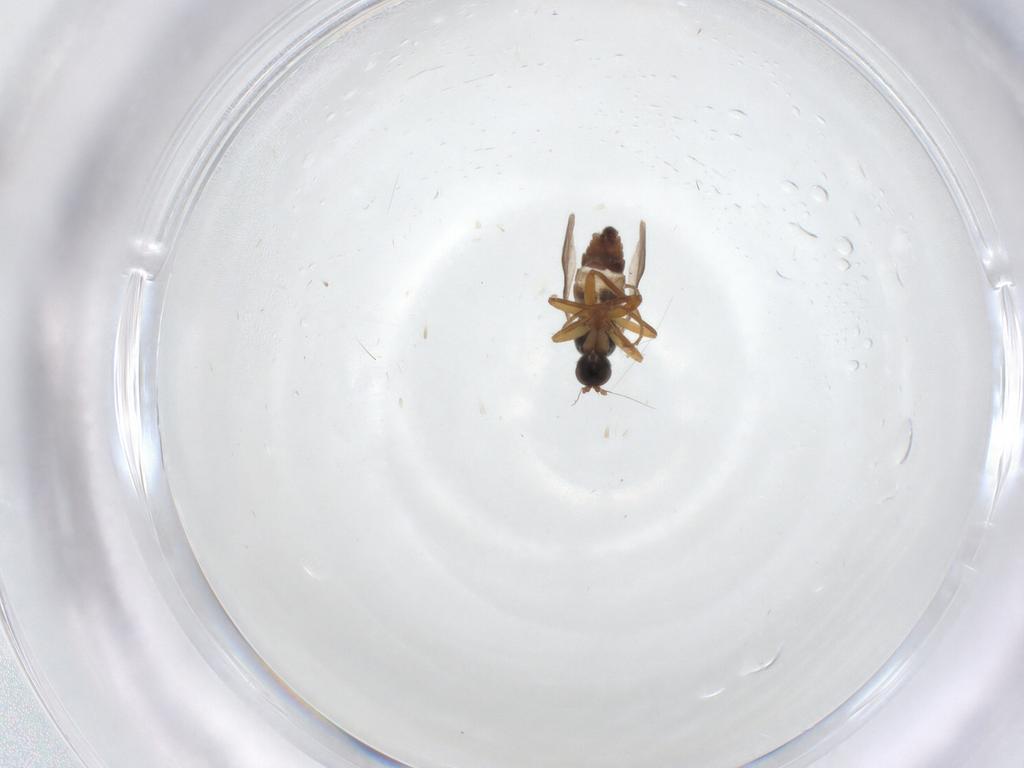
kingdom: Animalia
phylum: Arthropoda
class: Insecta
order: Diptera
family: Hybotidae
